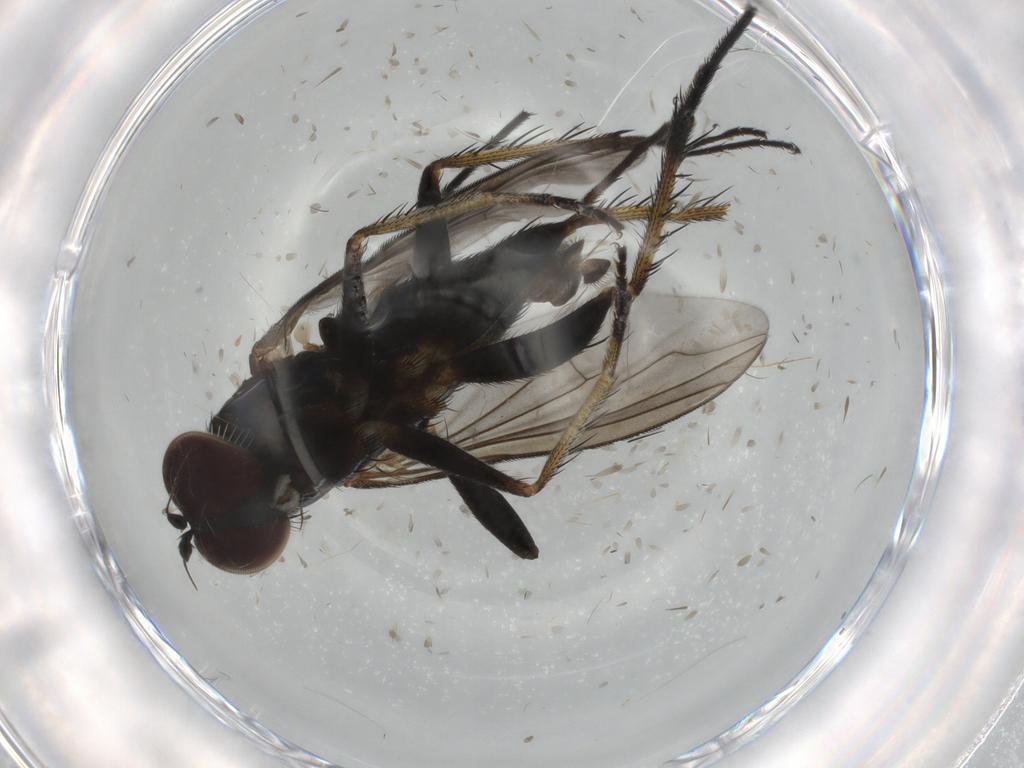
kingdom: Animalia
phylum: Arthropoda
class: Insecta
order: Diptera
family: Dolichopodidae
